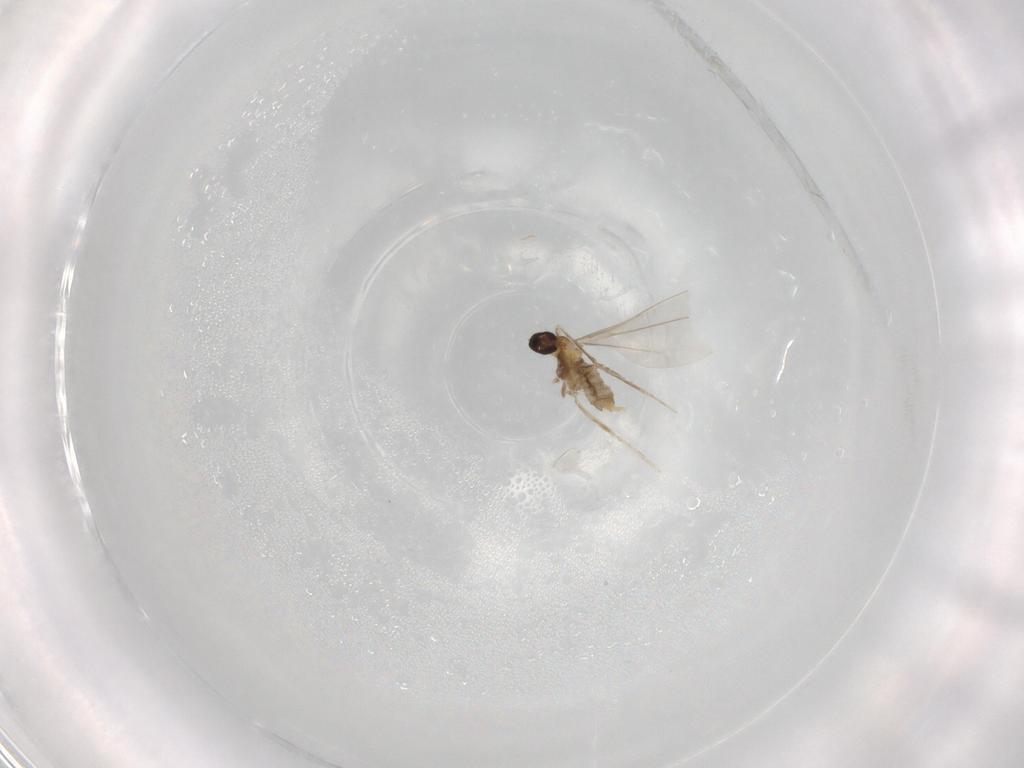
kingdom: Animalia
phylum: Arthropoda
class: Insecta
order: Diptera
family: Cecidomyiidae
